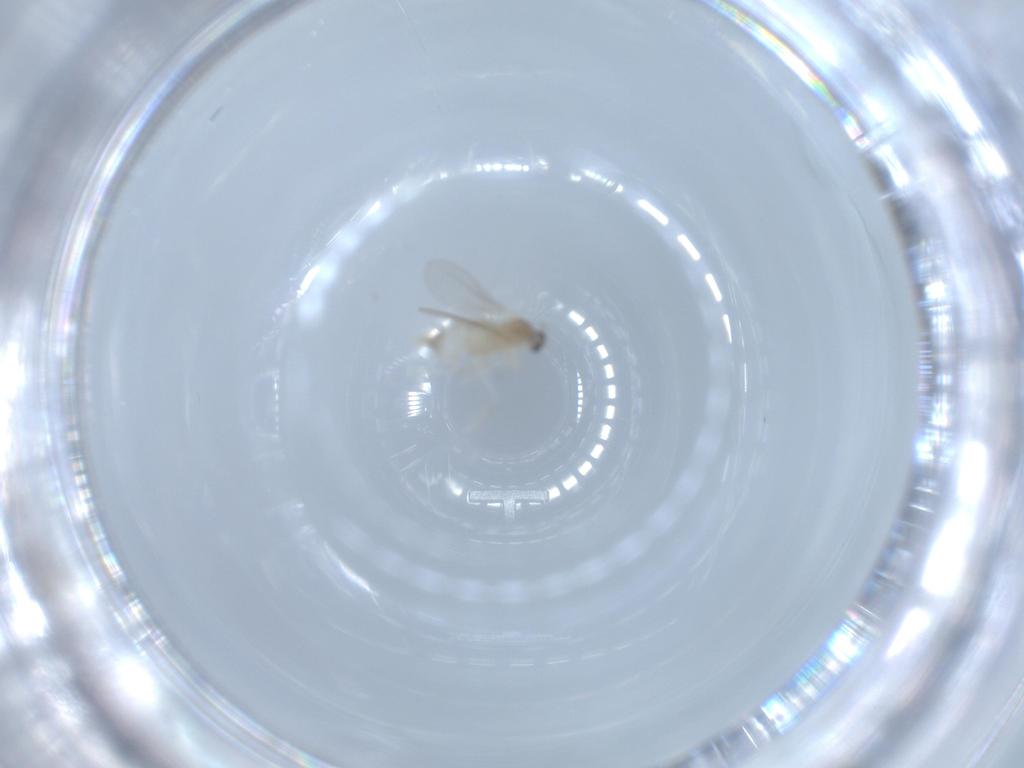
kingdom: Animalia
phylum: Arthropoda
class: Insecta
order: Diptera
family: Cecidomyiidae
